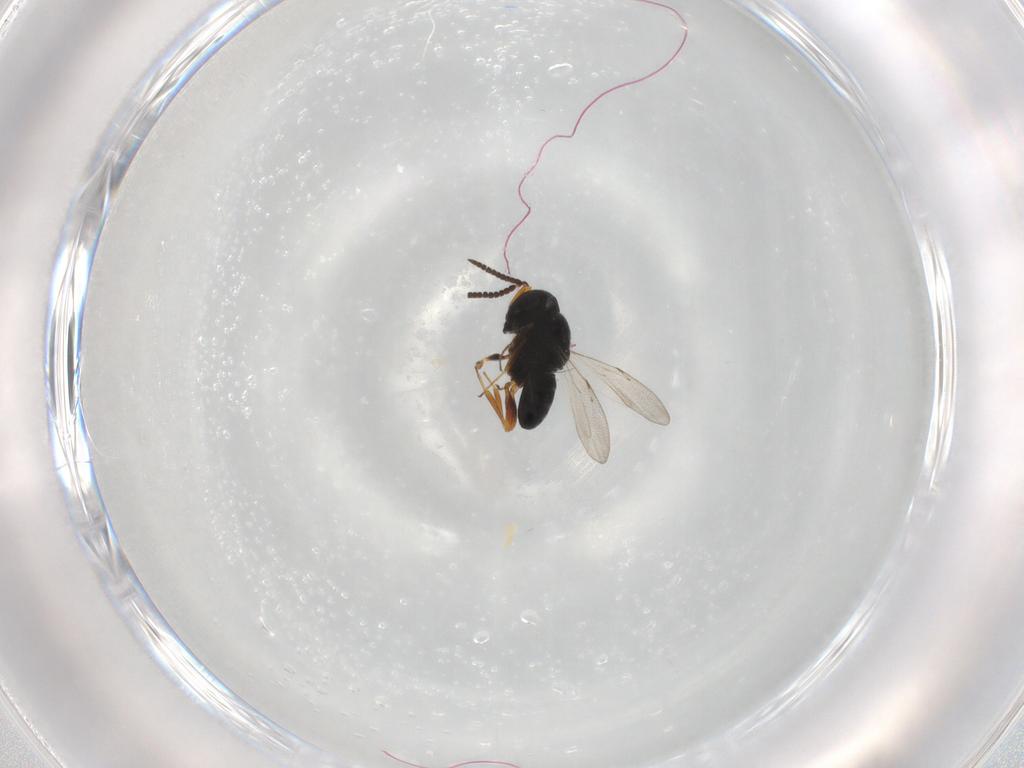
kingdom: Animalia
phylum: Arthropoda
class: Insecta
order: Hymenoptera
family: Scelionidae
